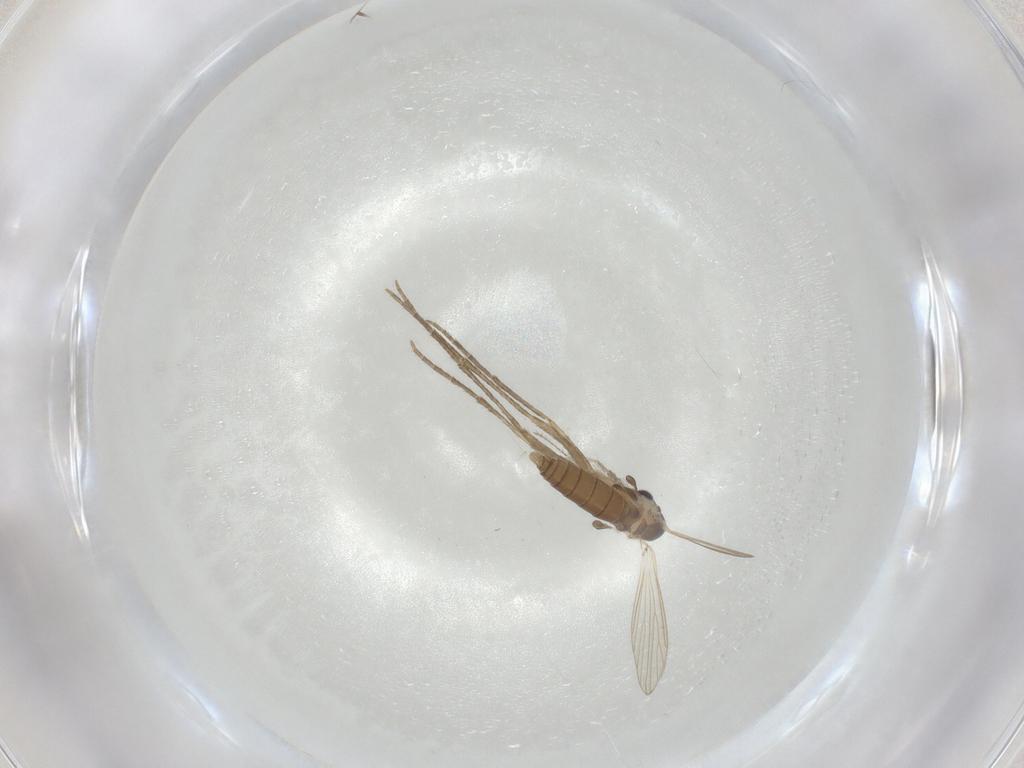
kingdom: Animalia
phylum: Arthropoda
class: Insecta
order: Diptera
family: Psychodidae
